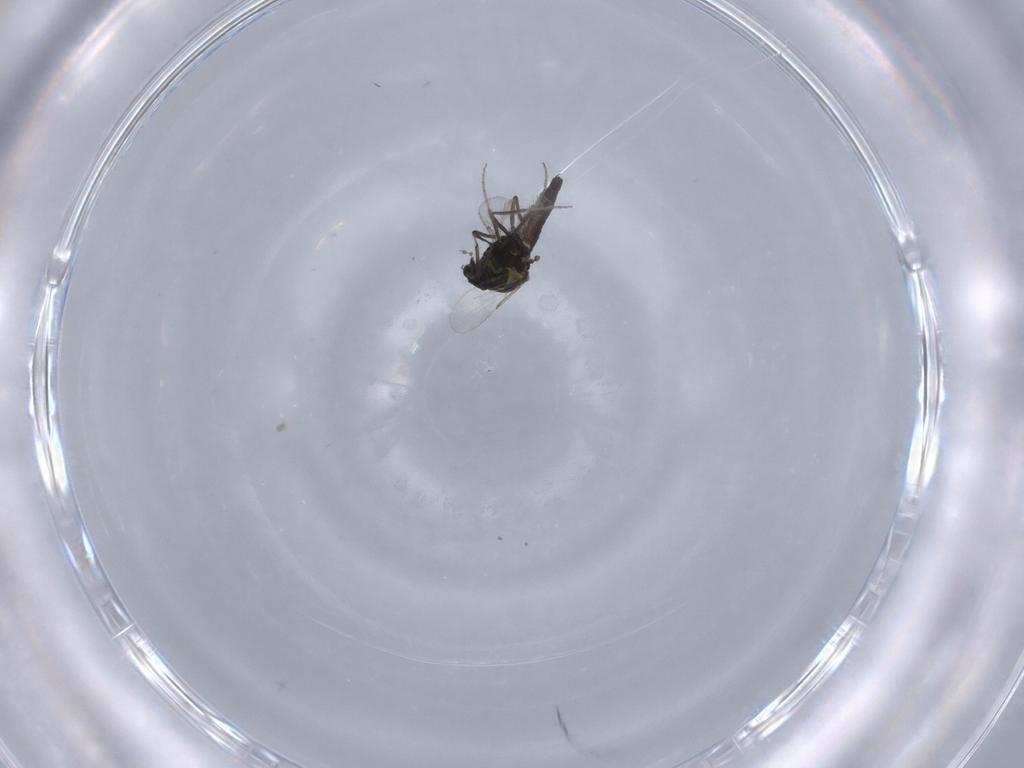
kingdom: Animalia
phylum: Arthropoda
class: Insecta
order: Diptera
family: Ceratopogonidae
